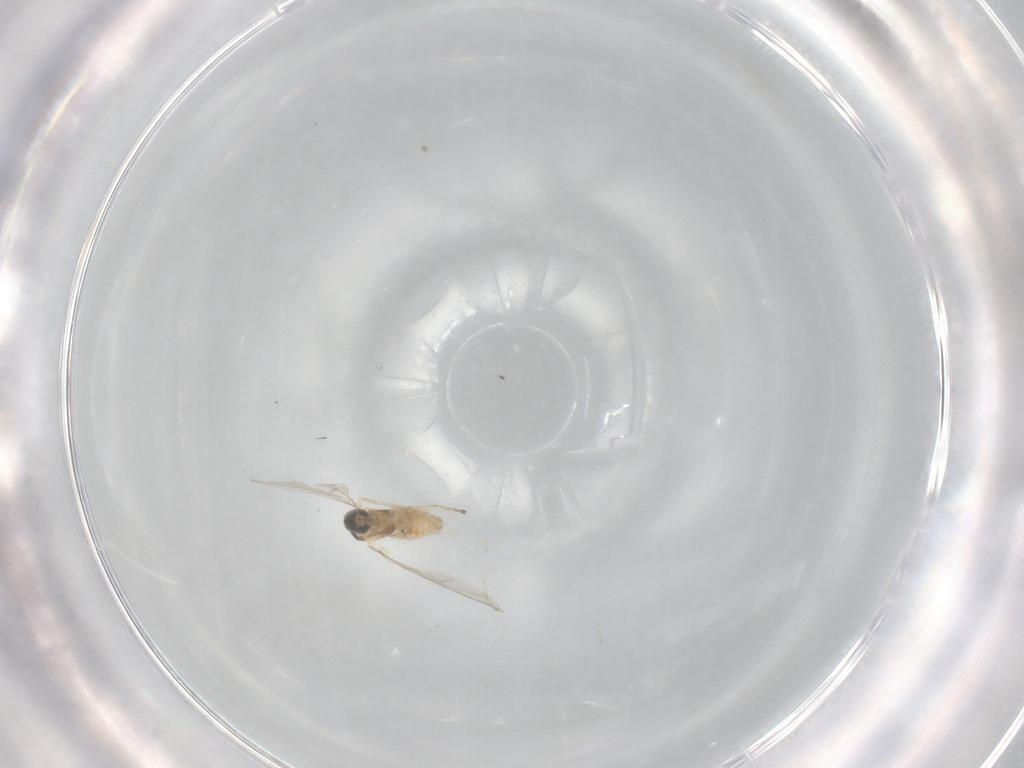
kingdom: Animalia
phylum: Arthropoda
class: Insecta
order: Diptera
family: Cecidomyiidae
